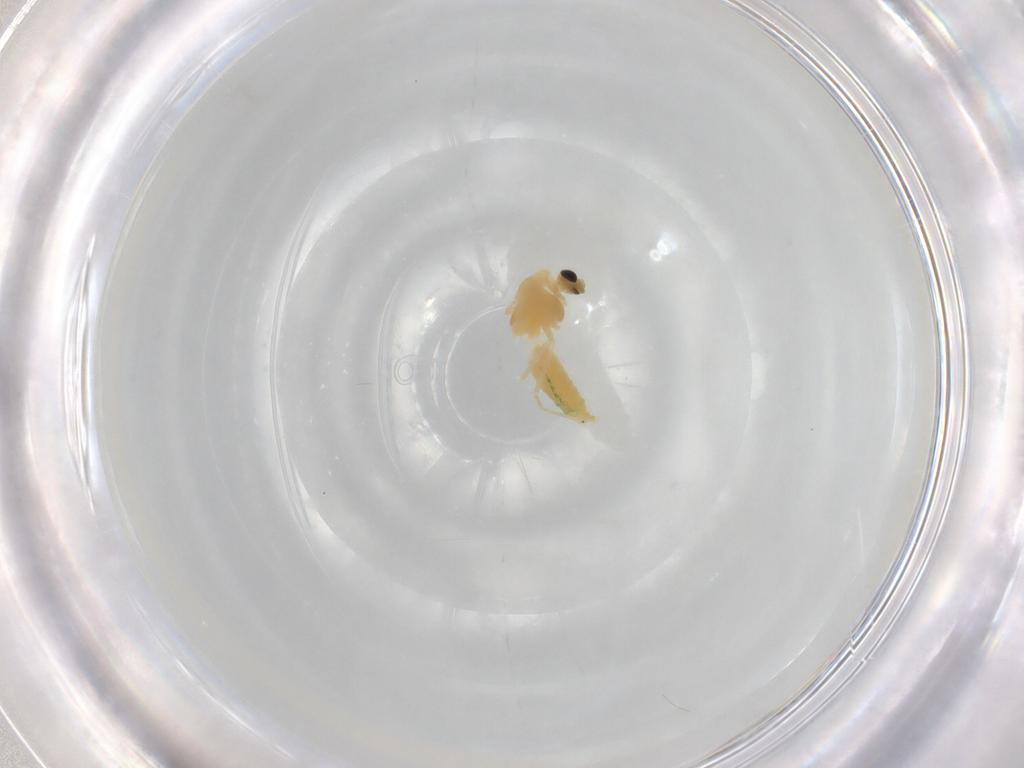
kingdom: Animalia
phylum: Arthropoda
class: Insecta
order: Diptera
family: Chironomidae
